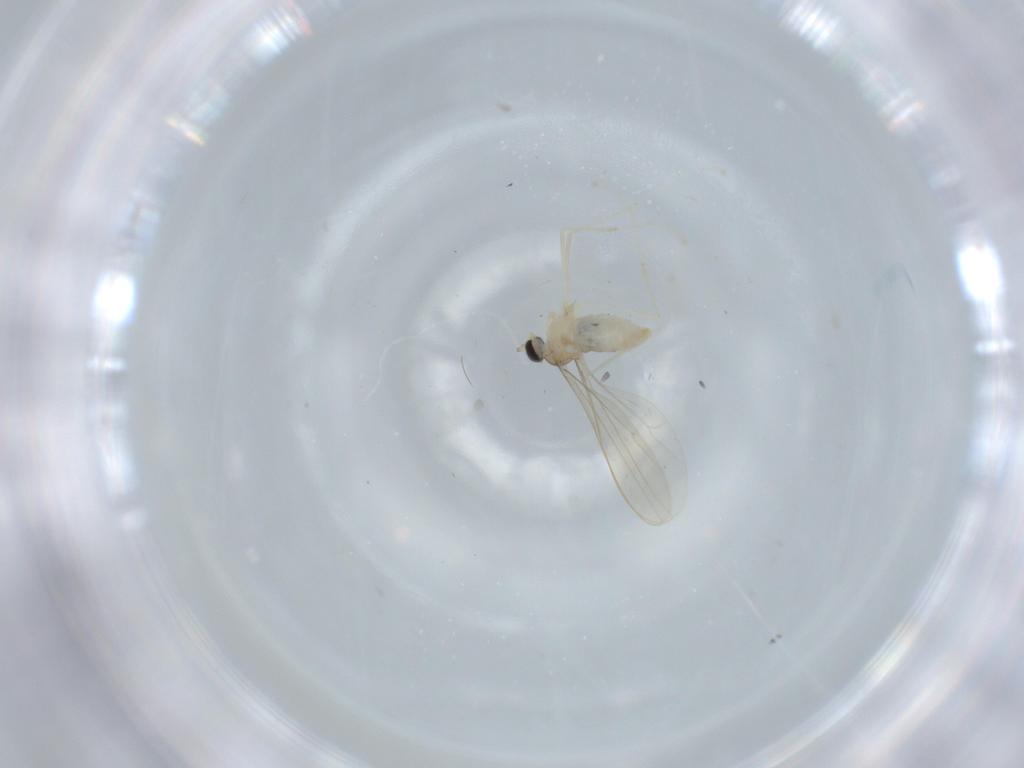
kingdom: Animalia
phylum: Arthropoda
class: Insecta
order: Diptera
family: Cecidomyiidae
